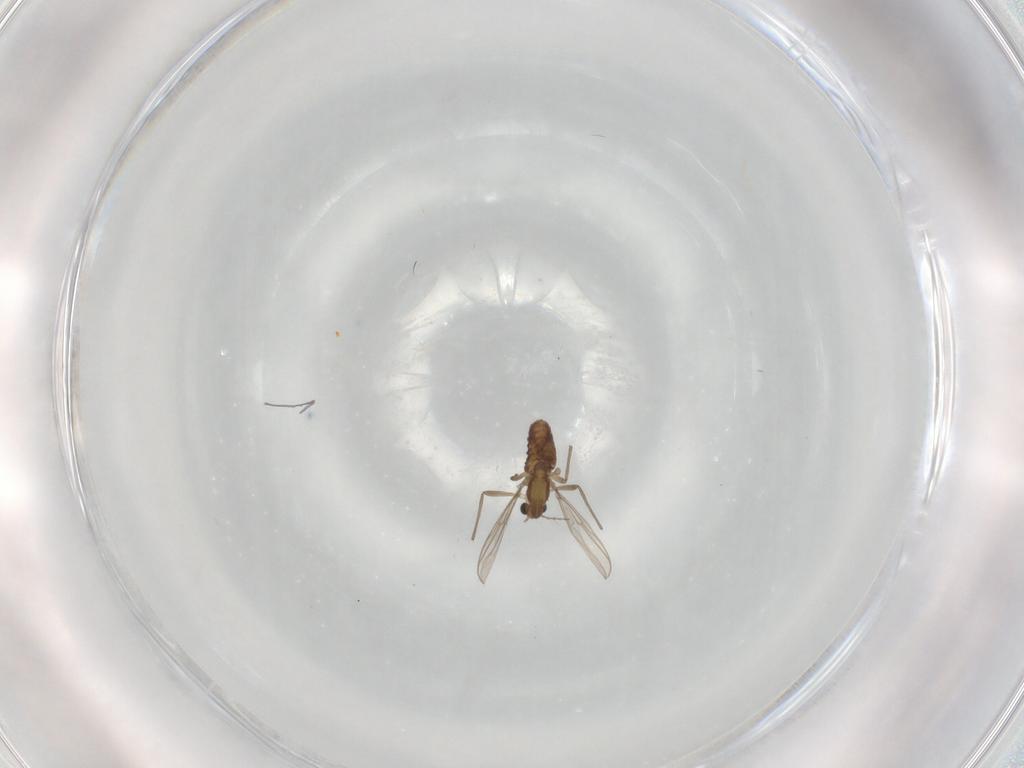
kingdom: Animalia
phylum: Arthropoda
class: Insecta
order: Diptera
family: Chironomidae
